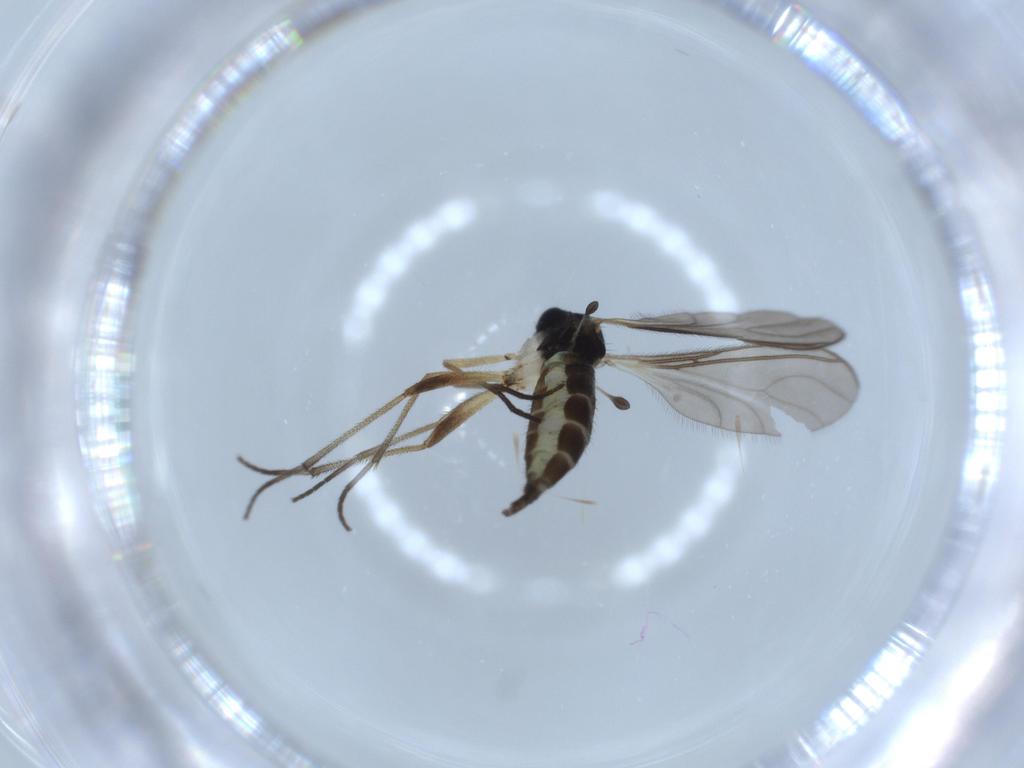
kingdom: Animalia
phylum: Arthropoda
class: Insecta
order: Diptera
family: Sciaridae
